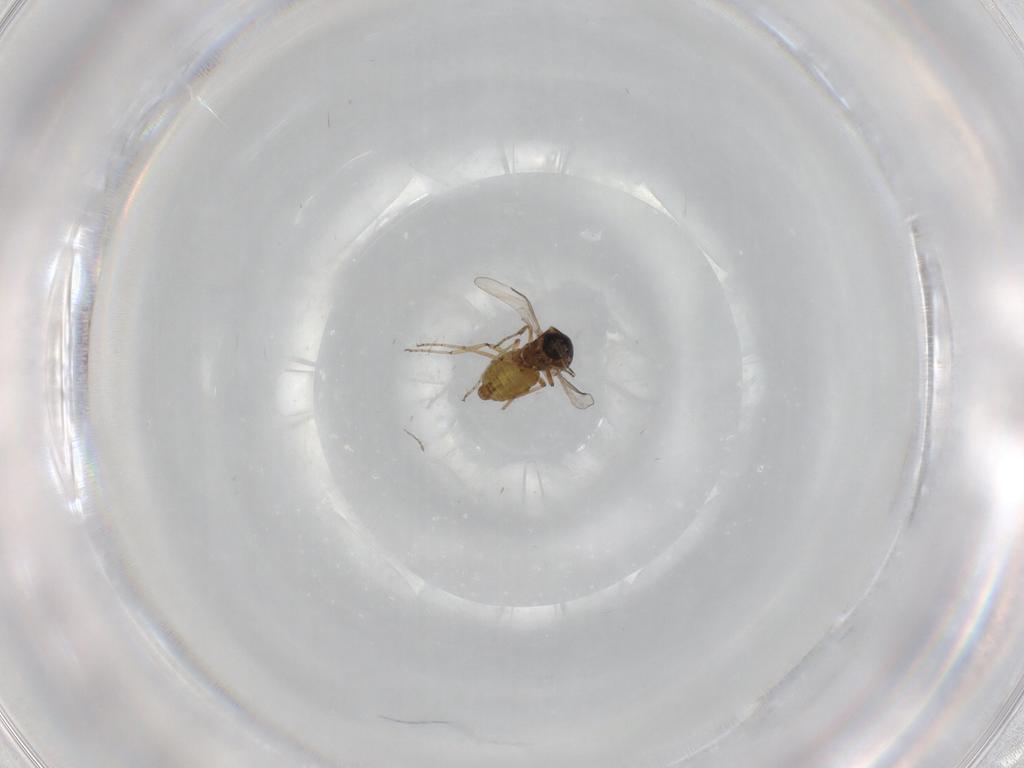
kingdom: Animalia
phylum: Arthropoda
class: Insecta
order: Diptera
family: Ceratopogonidae
